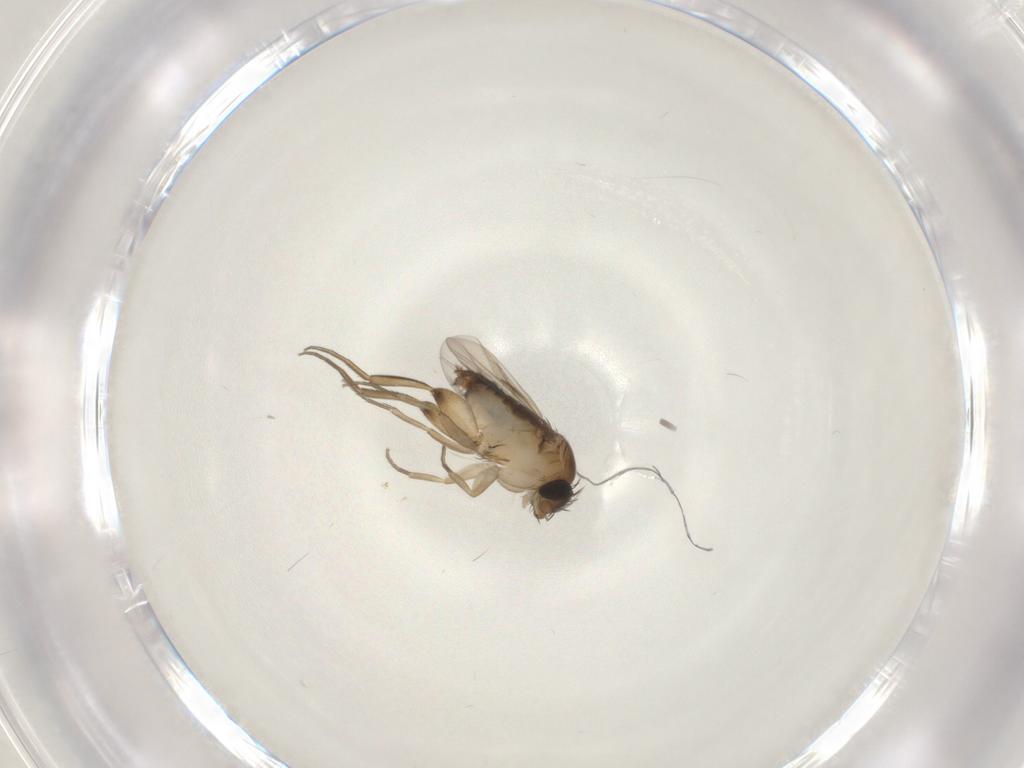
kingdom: Animalia
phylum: Arthropoda
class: Insecta
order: Diptera
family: Phoridae
